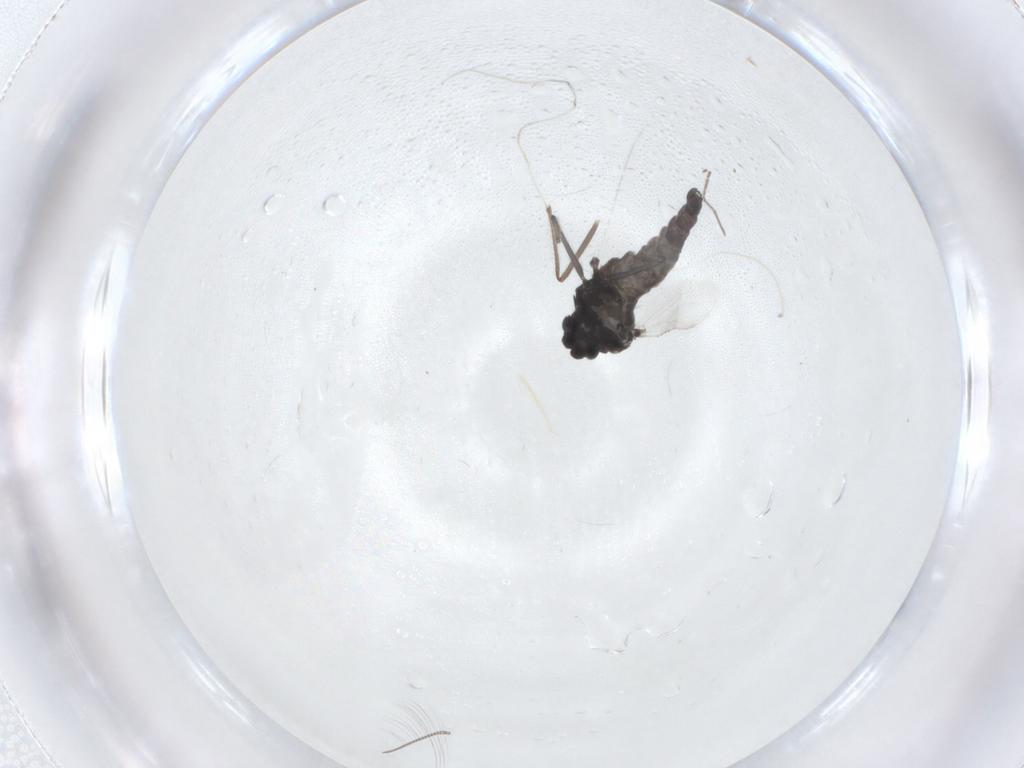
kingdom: Animalia
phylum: Arthropoda
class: Insecta
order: Diptera
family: Chironomidae
